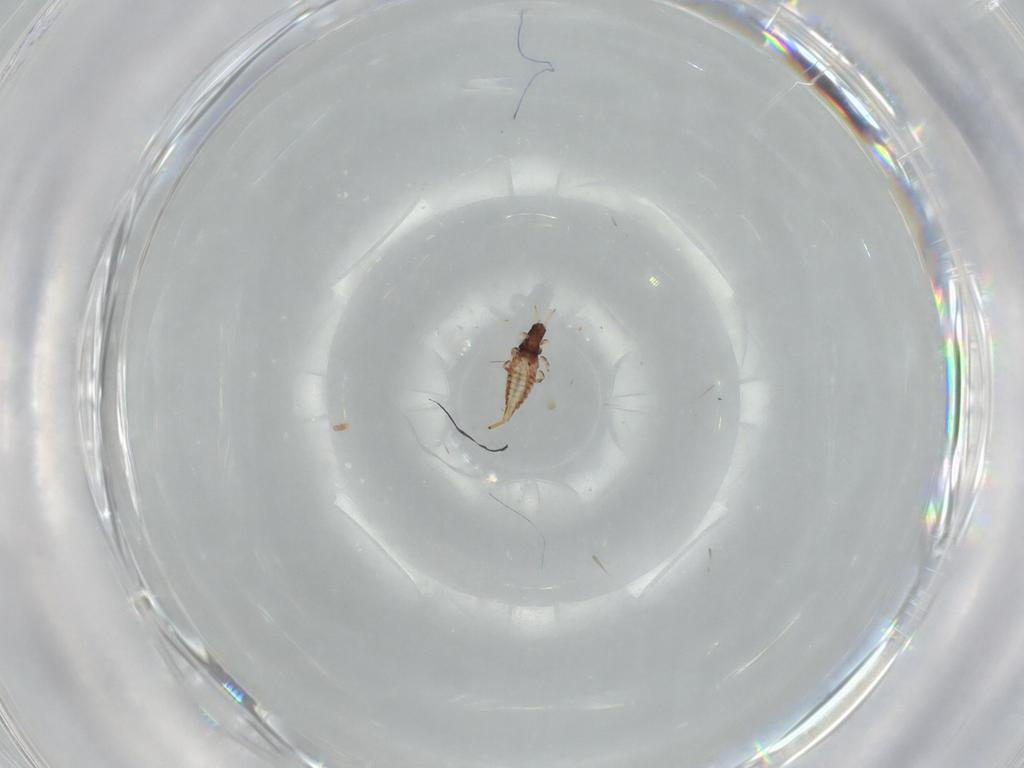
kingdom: Animalia
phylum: Arthropoda
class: Insecta
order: Thysanoptera
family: Phlaeothripidae
